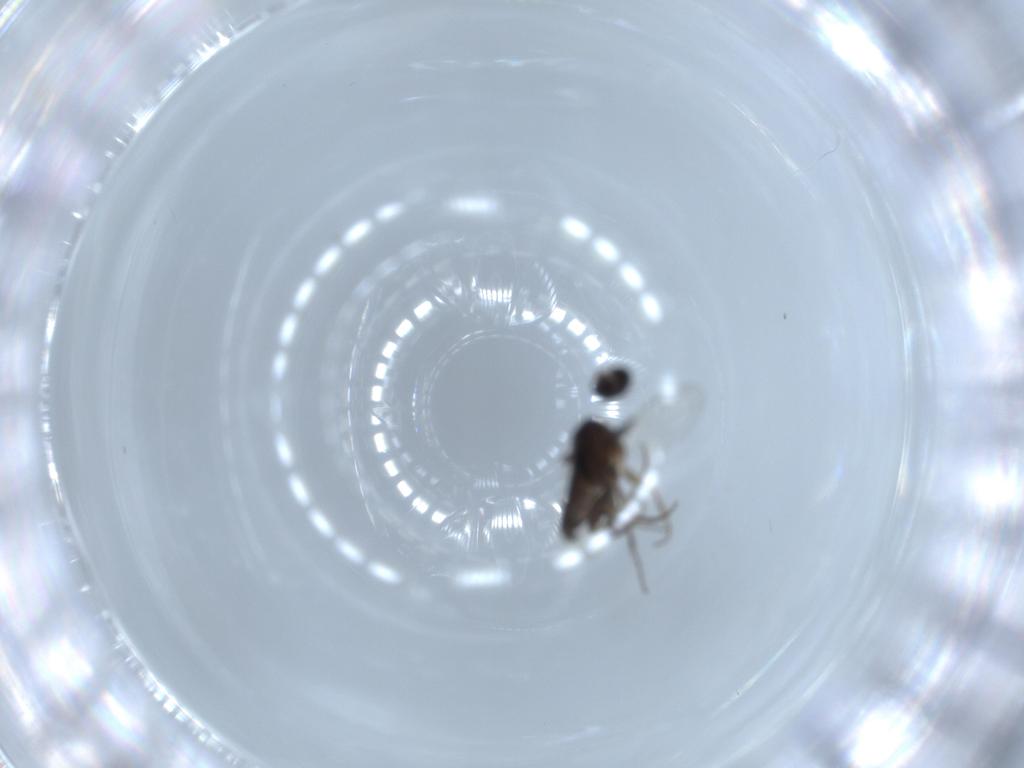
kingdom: Animalia
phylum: Arthropoda
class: Insecta
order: Diptera
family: Phoridae
